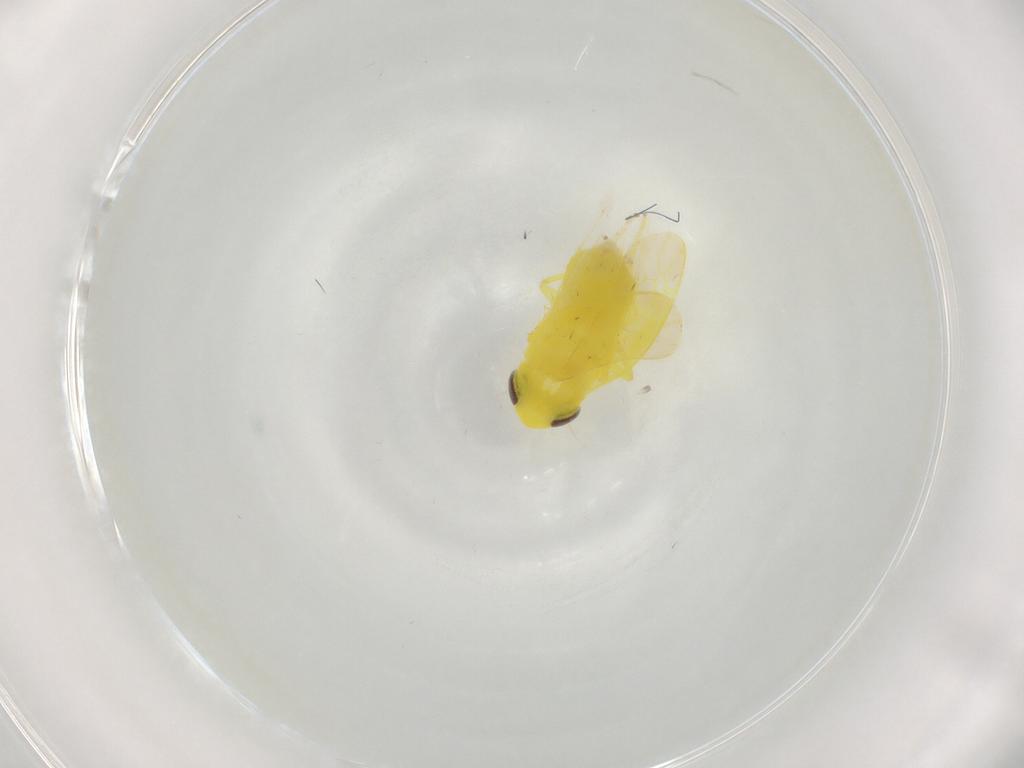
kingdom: Animalia
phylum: Arthropoda
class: Insecta
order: Hemiptera
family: Cicadellidae
